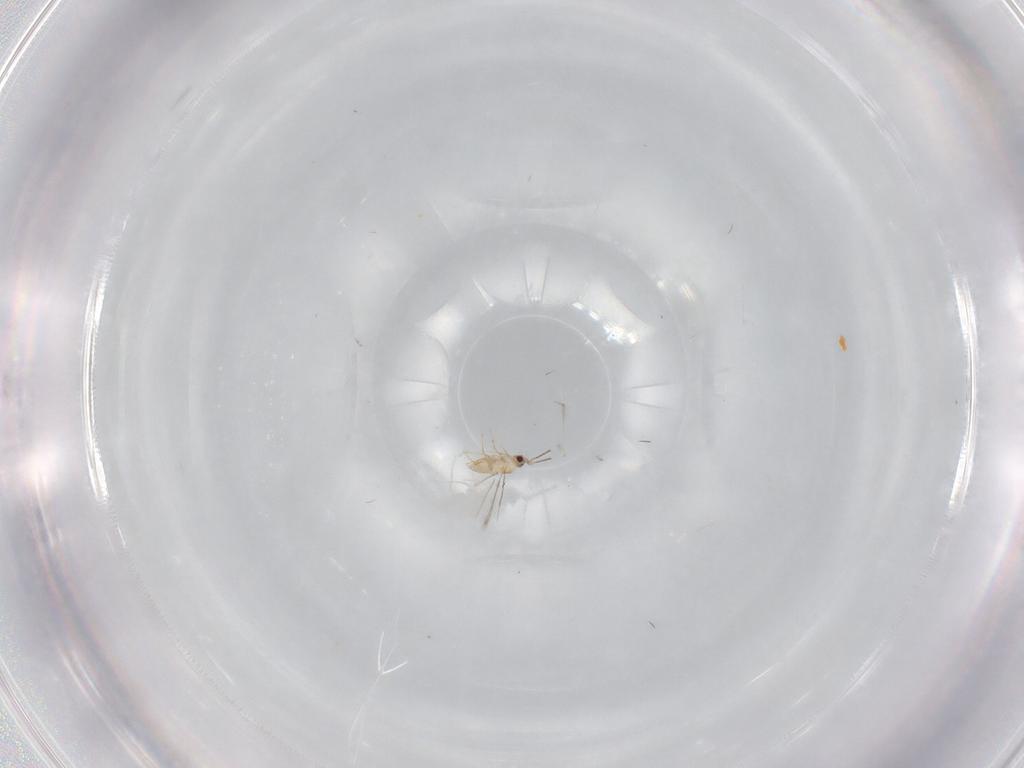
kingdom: Animalia
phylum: Arthropoda
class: Insecta
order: Hymenoptera
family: Mymaridae
